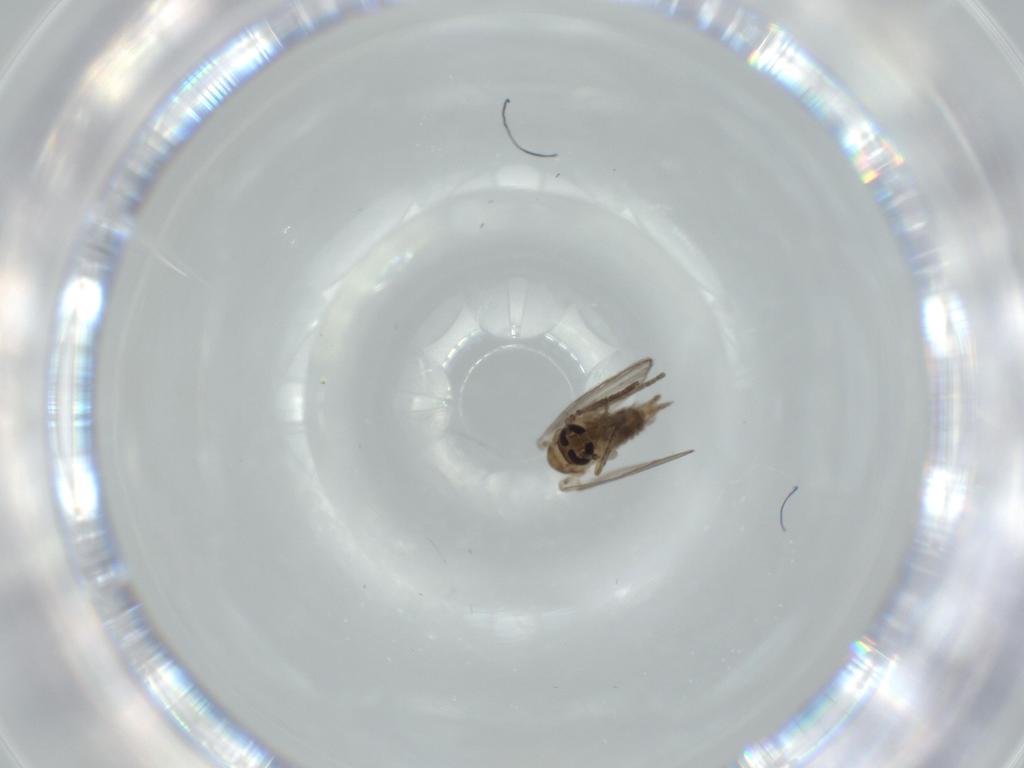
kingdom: Animalia
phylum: Arthropoda
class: Insecta
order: Diptera
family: Psychodidae
